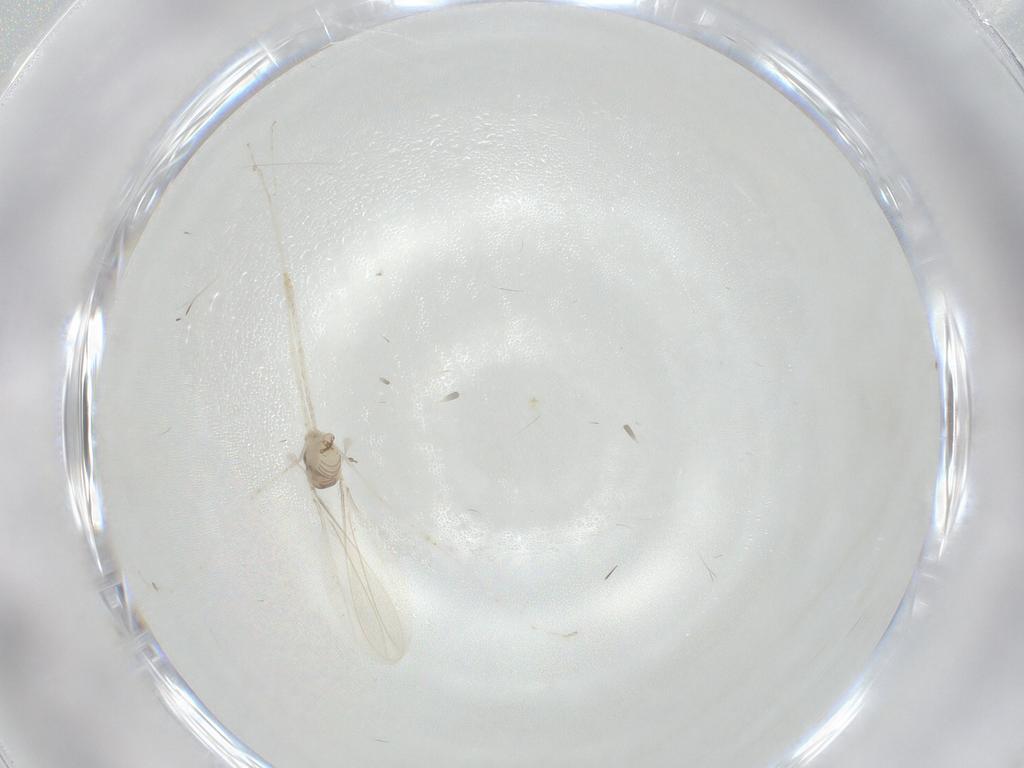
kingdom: Animalia
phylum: Arthropoda
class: Insecta
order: Diptera
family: Cecidomyiidae
